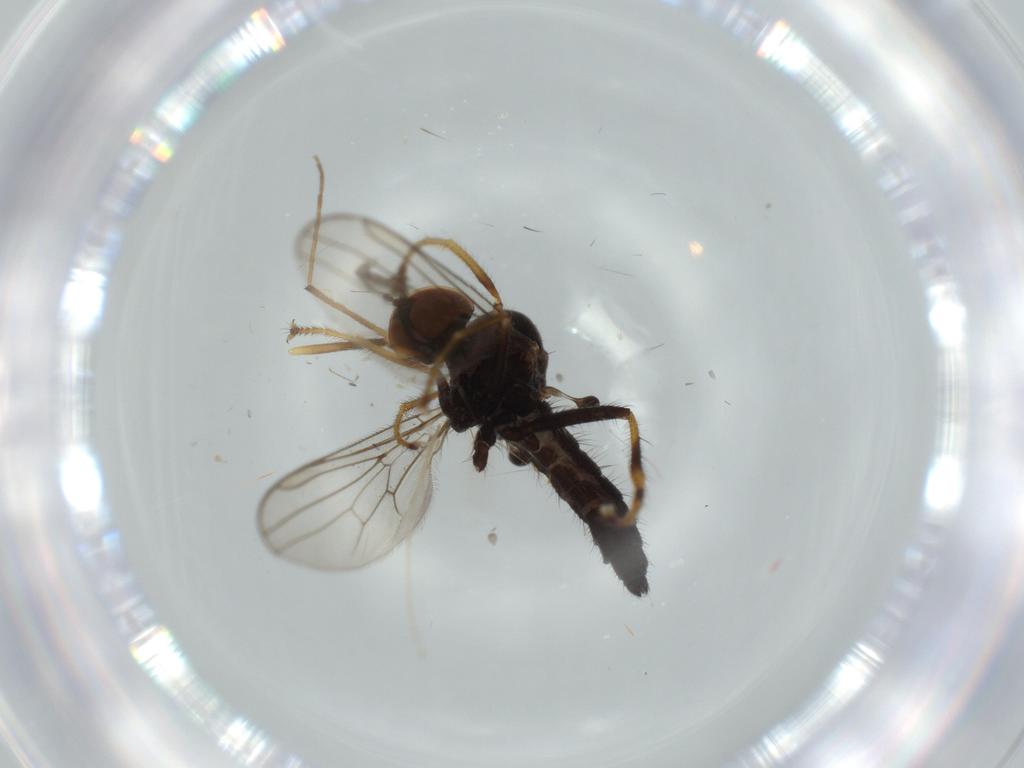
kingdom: Animalia
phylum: Arthropoda
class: Insecta
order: Diptera
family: Hybotidae
